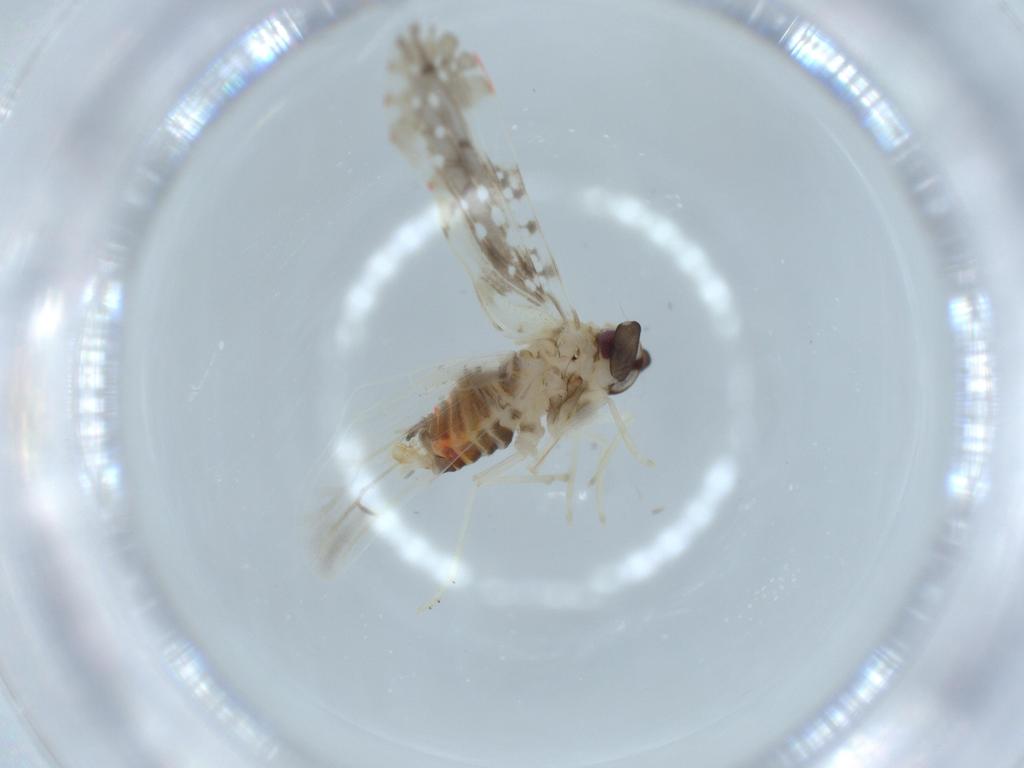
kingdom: Animalia
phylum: Arthropoda
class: Insecta
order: Hemiptera
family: Derbidae
